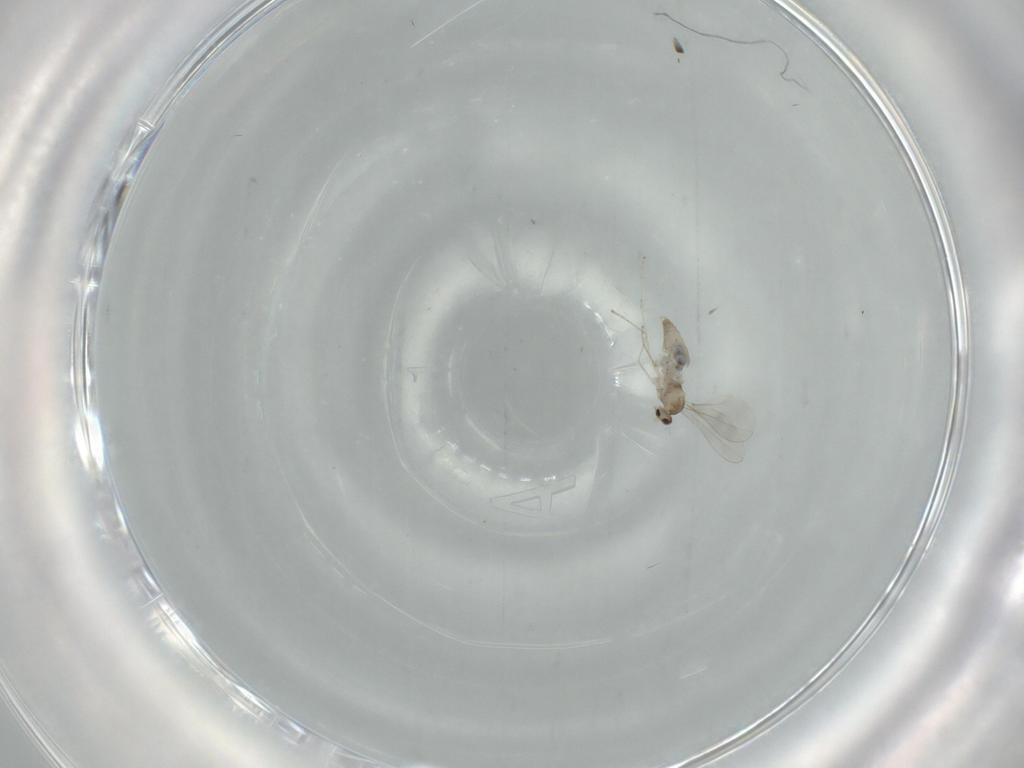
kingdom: Animalia
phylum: Arthropoda
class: Insecta
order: Diptera
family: Cecidomyiidae
